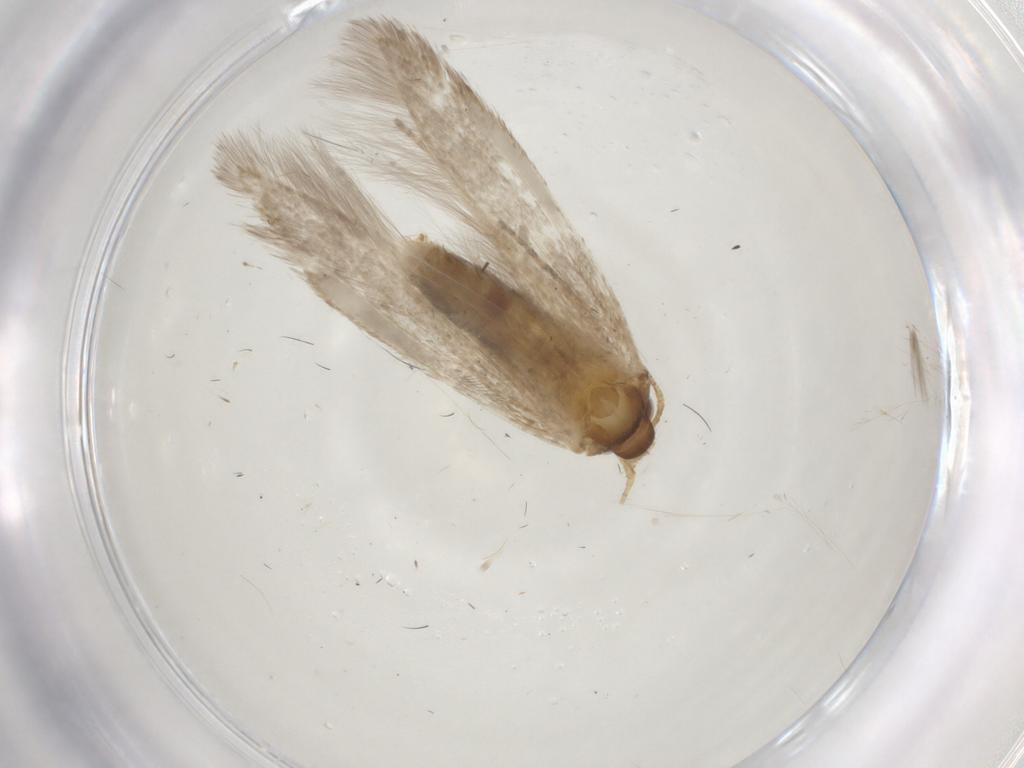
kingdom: Animalia
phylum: Arthropoda
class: Insecta
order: Lepidoptera
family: Coleophoridae
